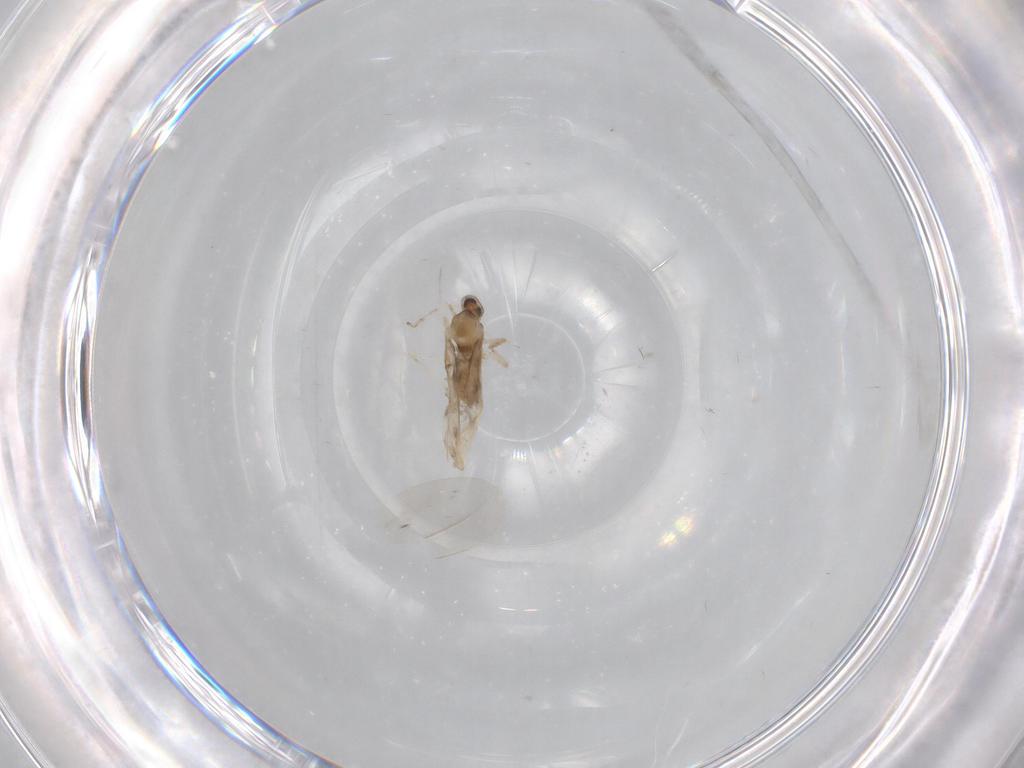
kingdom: Animalia
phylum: Arthropoda
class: Insecta
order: Diptera
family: Cecidomyiidae
